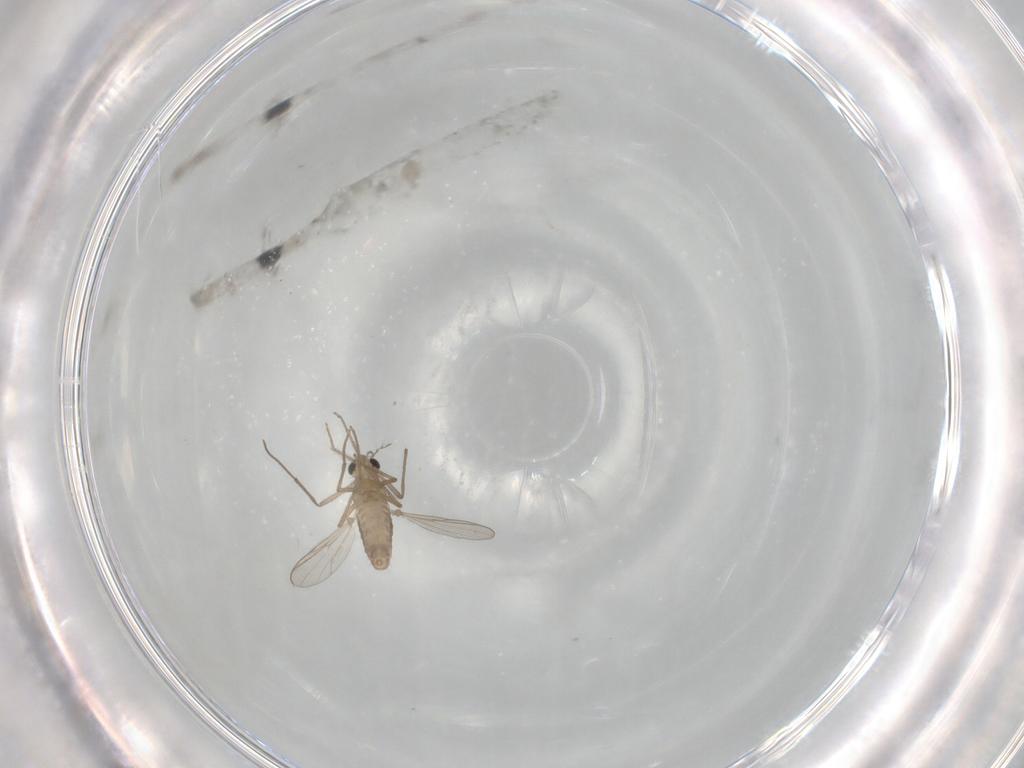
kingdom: Animalia
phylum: Arthropoda
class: Insecta
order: Diptera
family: Chironomidae
